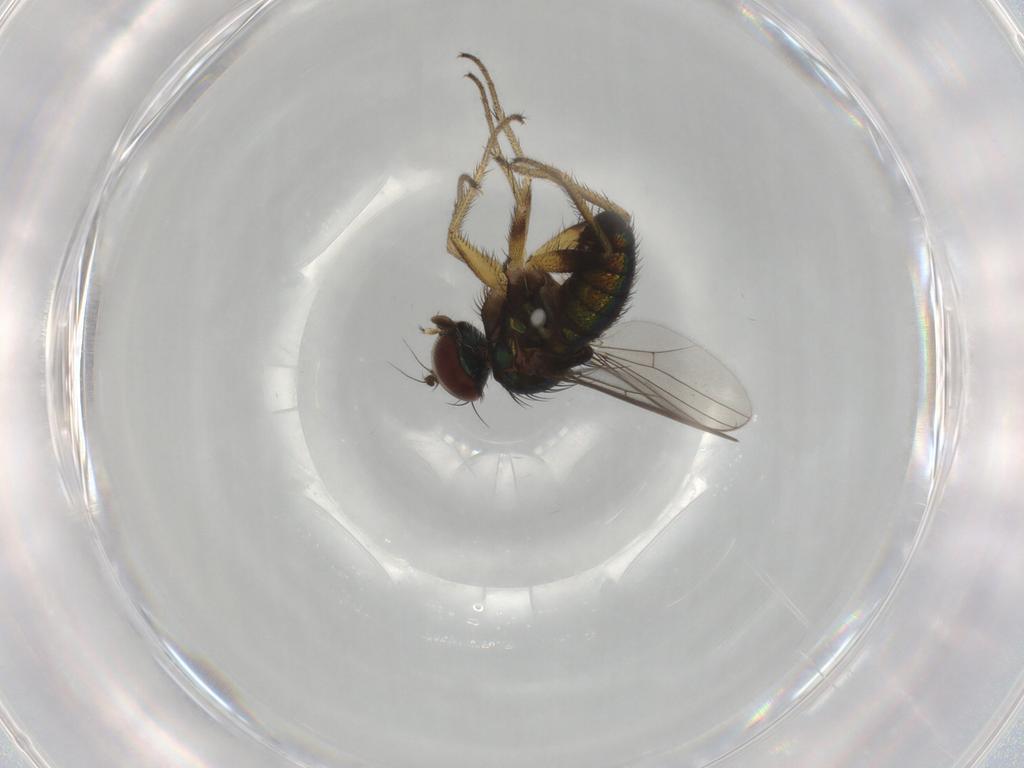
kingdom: Animalia
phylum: Arthropoda
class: Insecta
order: Diptera
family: Dolichopodidae
